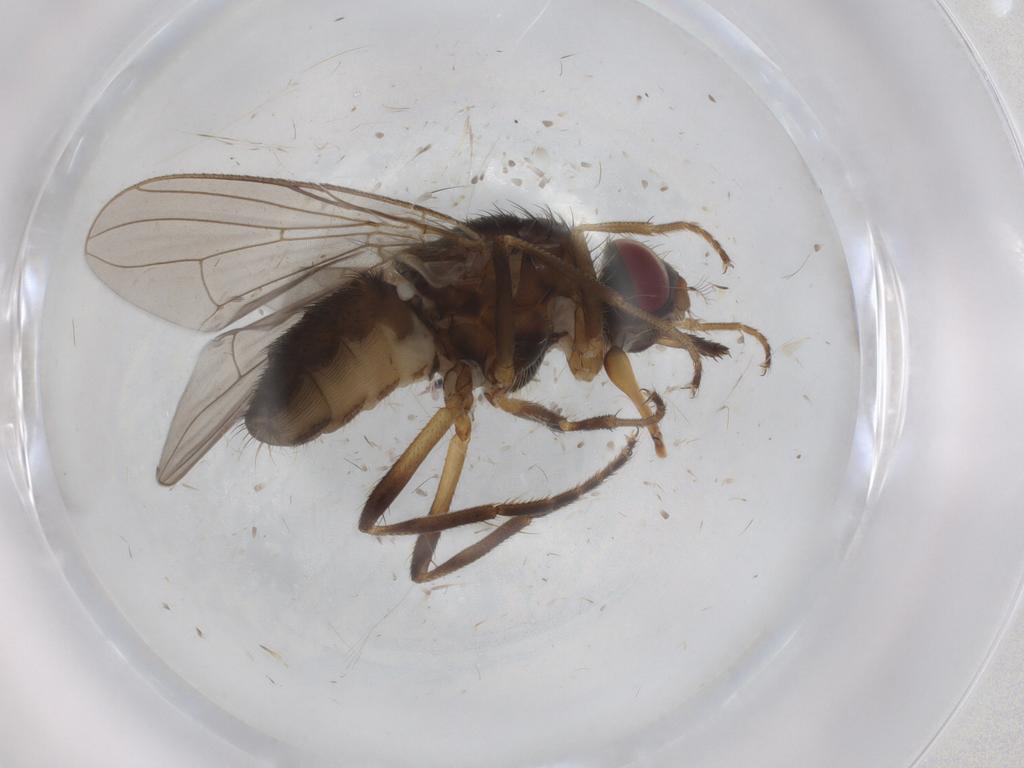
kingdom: Animalia
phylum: Arthropoda
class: Insecta
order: Diptera
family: Cecidomyiidae
